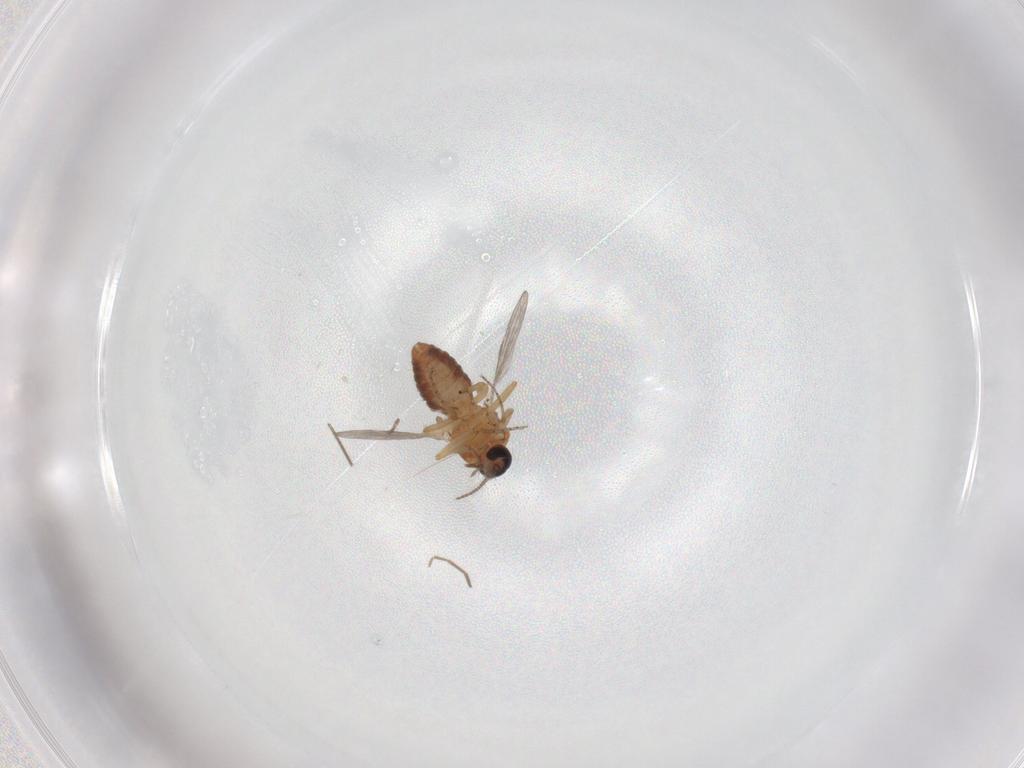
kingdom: Animalia
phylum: Arthropoda
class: Insecta
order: Diptera
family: Ceratopogonidae
